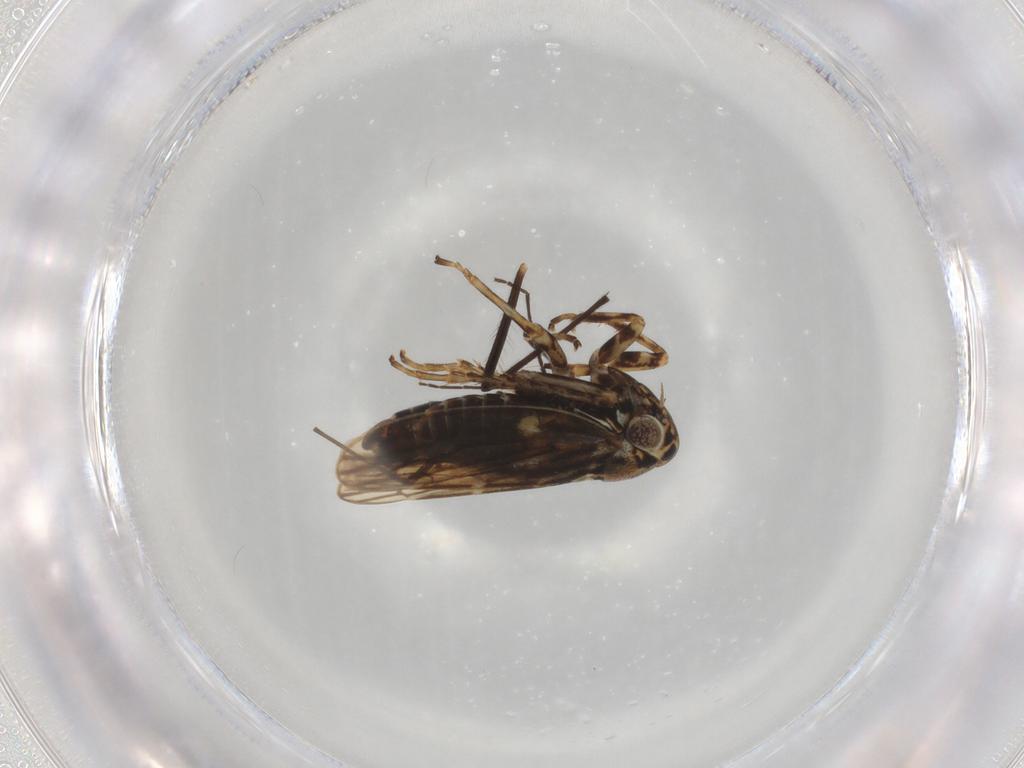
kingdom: Animalia
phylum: Arthropoda
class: Insecta
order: Hemiptera
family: Cicadellidae
